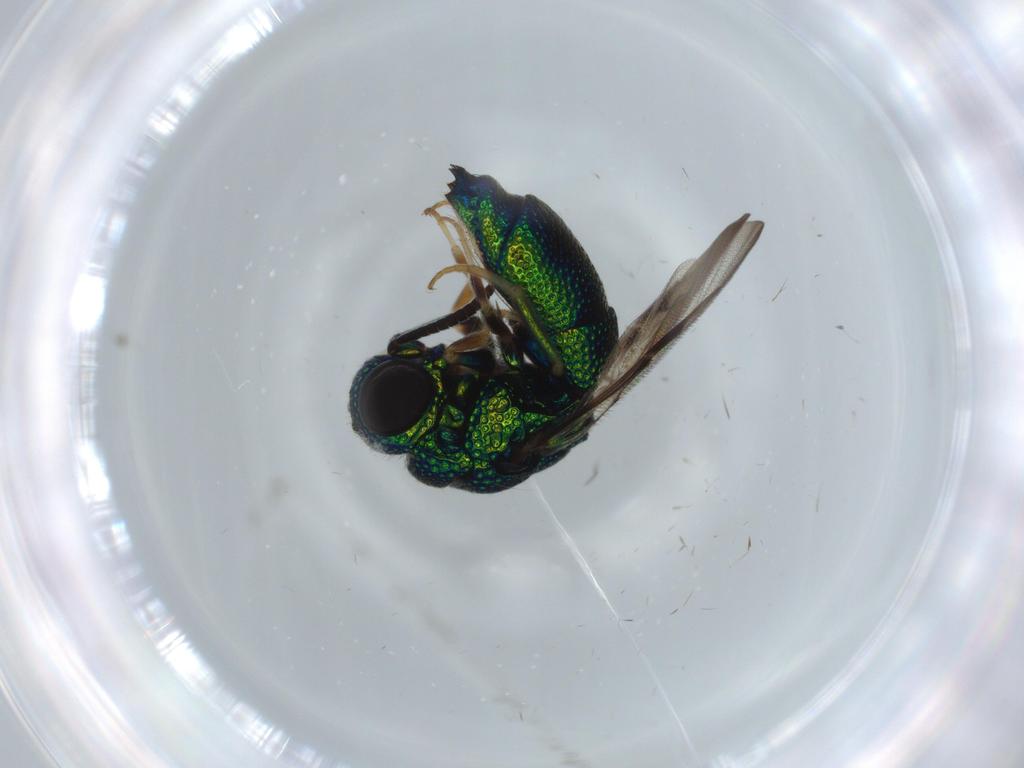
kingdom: Animalia
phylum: Arthropoda
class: Insecta
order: Hymenoptera
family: Chrysididae
